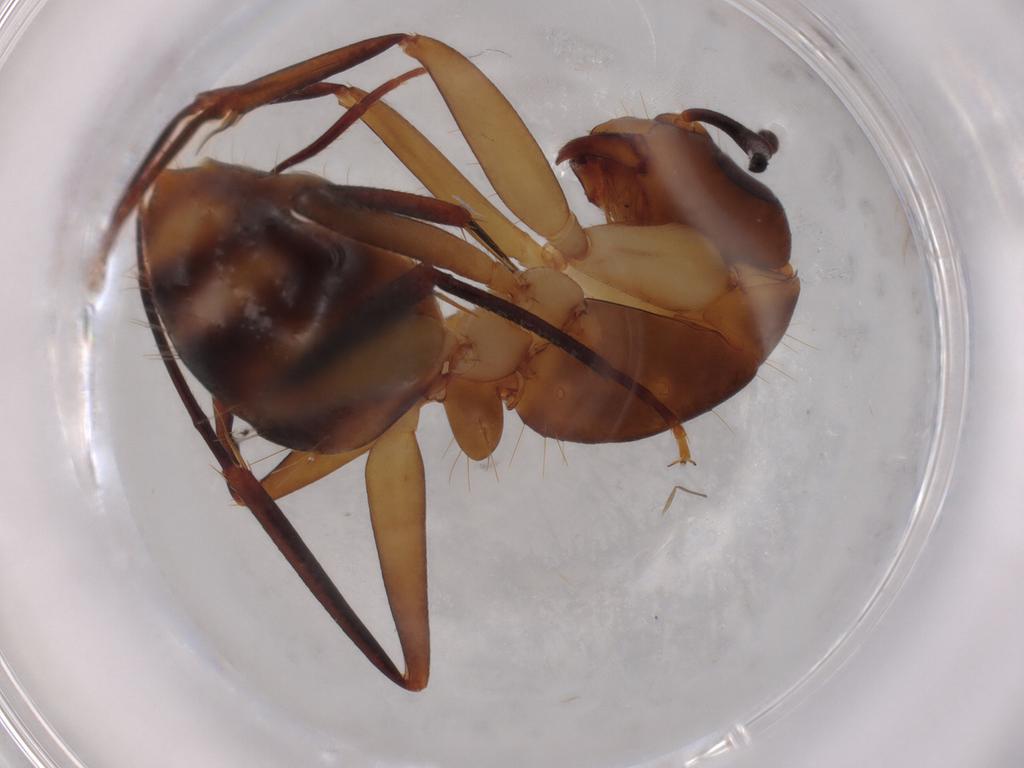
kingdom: Animalia
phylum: Arthropoda
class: Insecta
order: Hymenoptera
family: Formicidae
